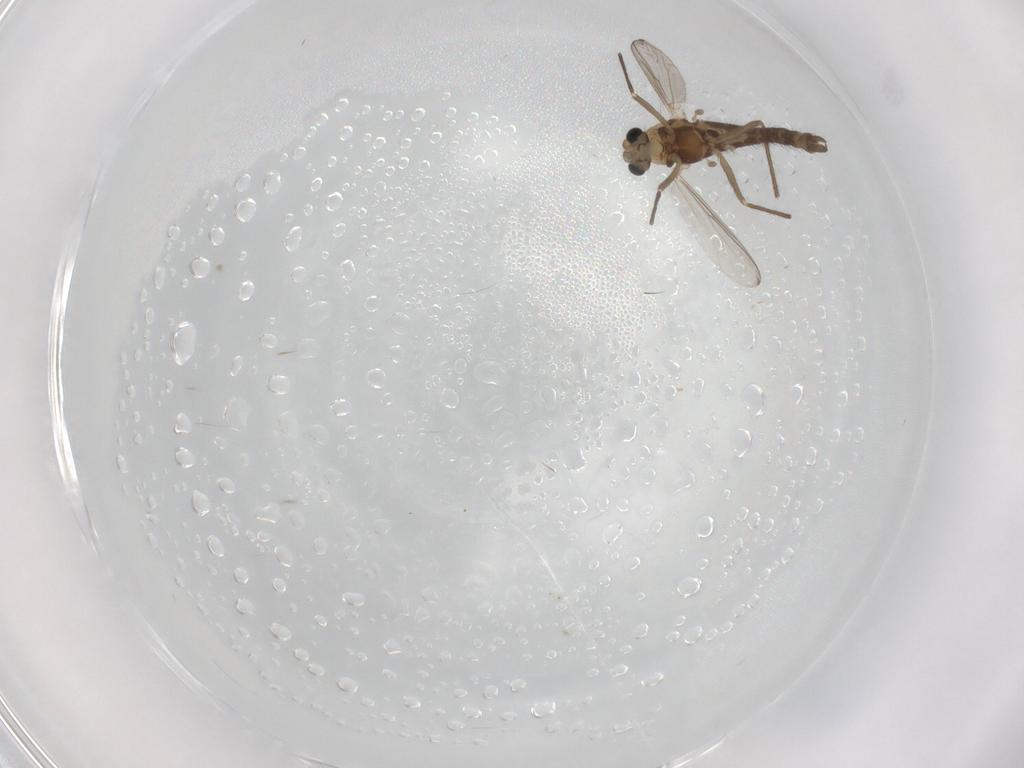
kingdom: Animalia
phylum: Arthropoda
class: Insecta
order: Diptera
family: Chironomidae
